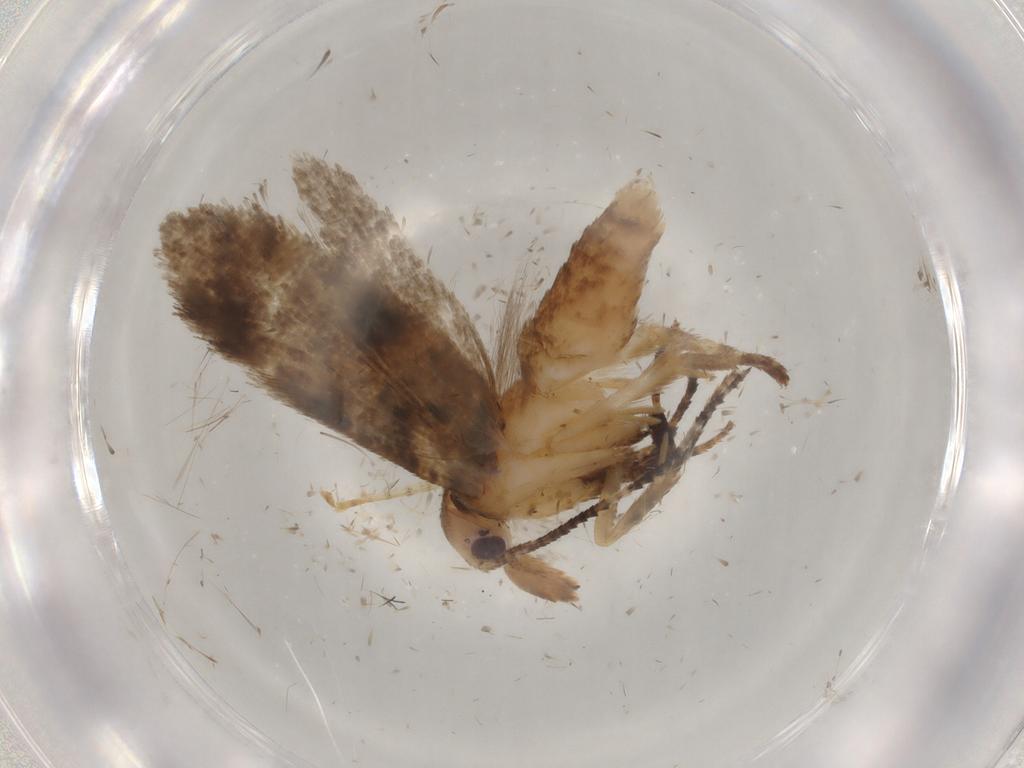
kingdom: Animalia
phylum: Arthropoda
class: Insecta
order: Lepidoptera
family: Ypsolophidae
